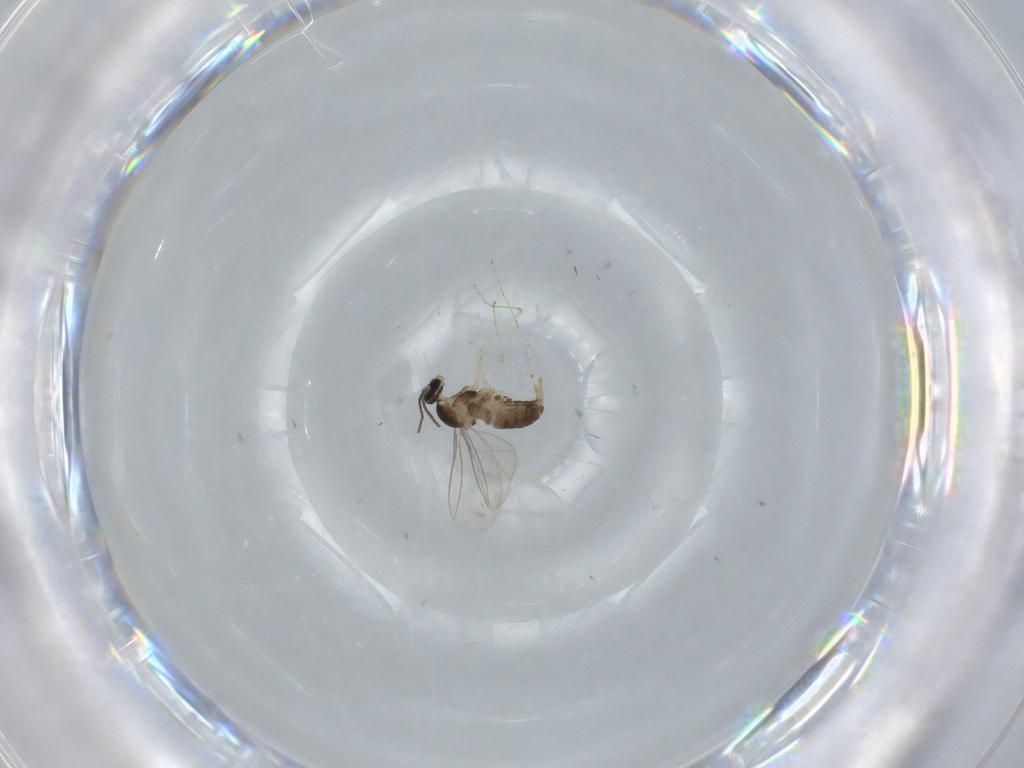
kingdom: Animalia
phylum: Arthropoda
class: Insecta
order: Diptera
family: Cecidomyiidae
